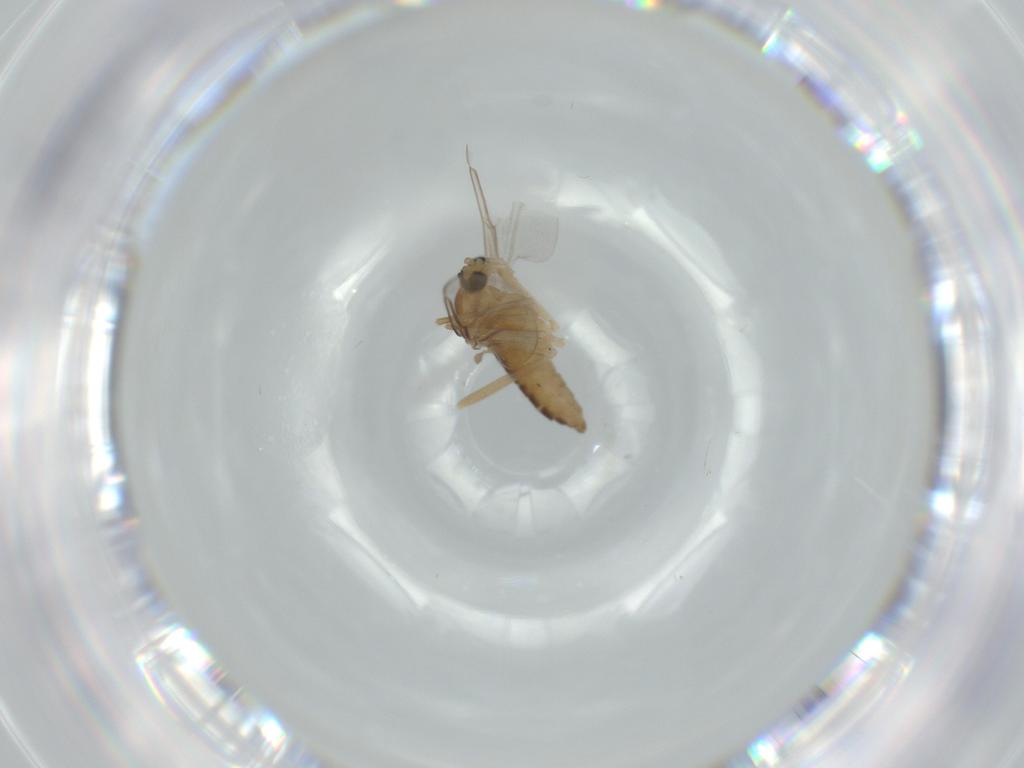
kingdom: Animalia
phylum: Arthropoda
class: Insecta
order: Diptera
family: Cecidomyiidae
